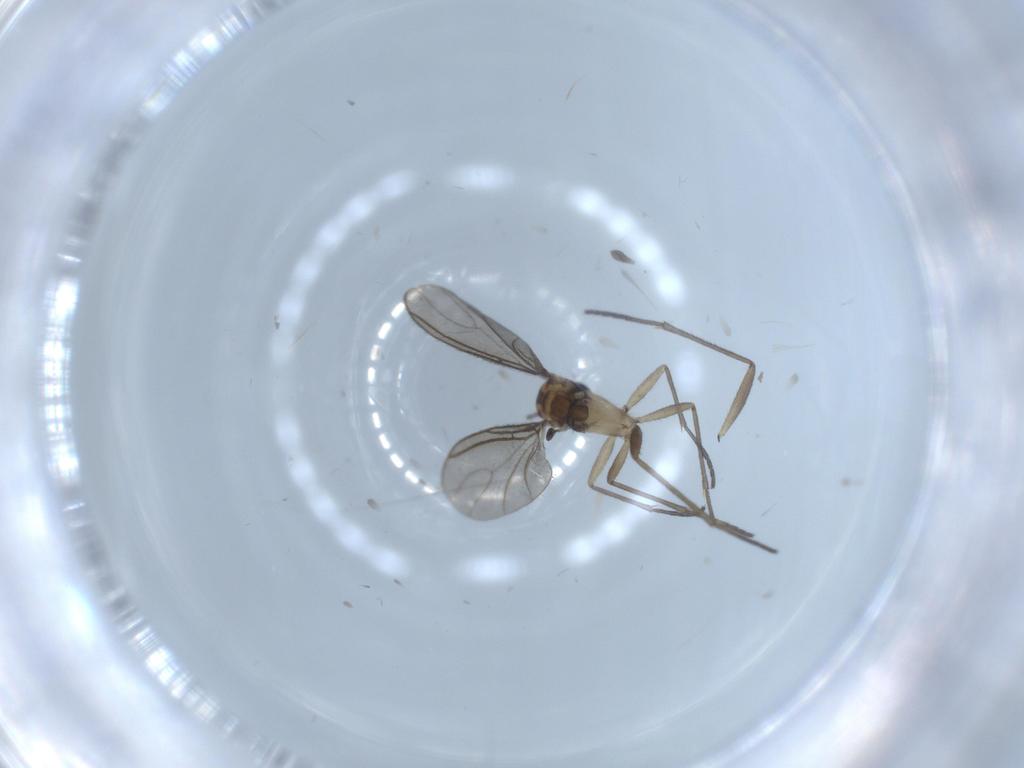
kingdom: Animalia
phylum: Arthropoda
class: Insecta
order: Diptera
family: Sciaridae
